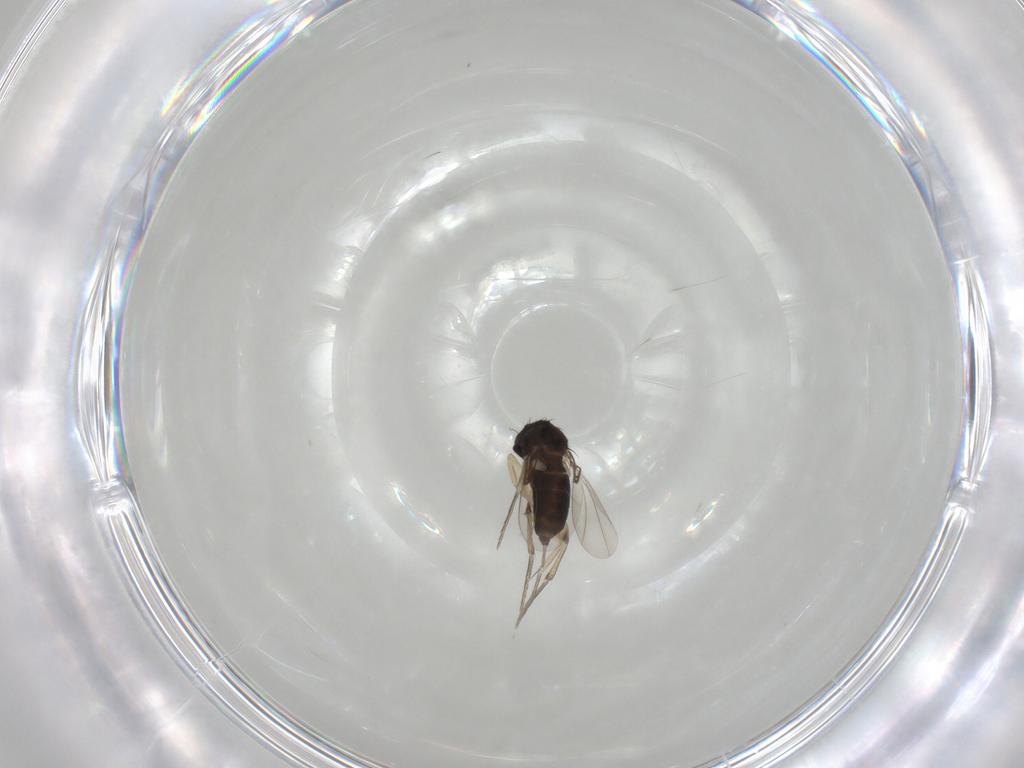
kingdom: Animalia
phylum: Arthropoda
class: Insecta
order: Diptera
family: Phoridae
